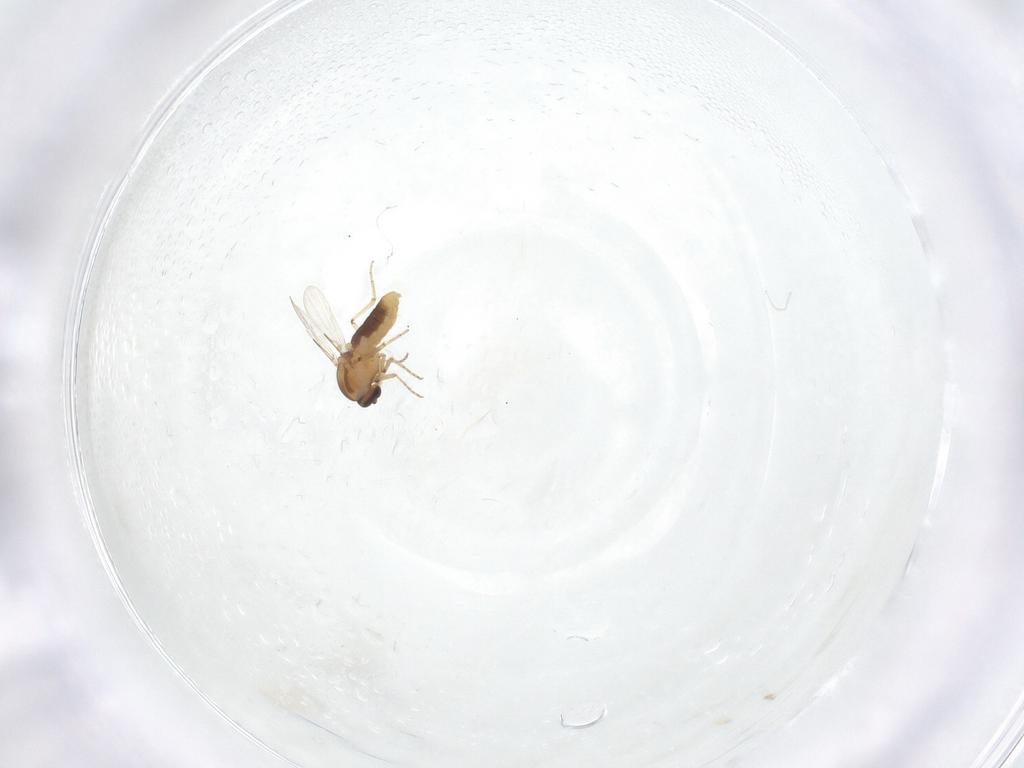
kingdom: Animalia
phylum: Arthropoda
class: Insecta
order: Diptera
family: Ceratopogonidae
